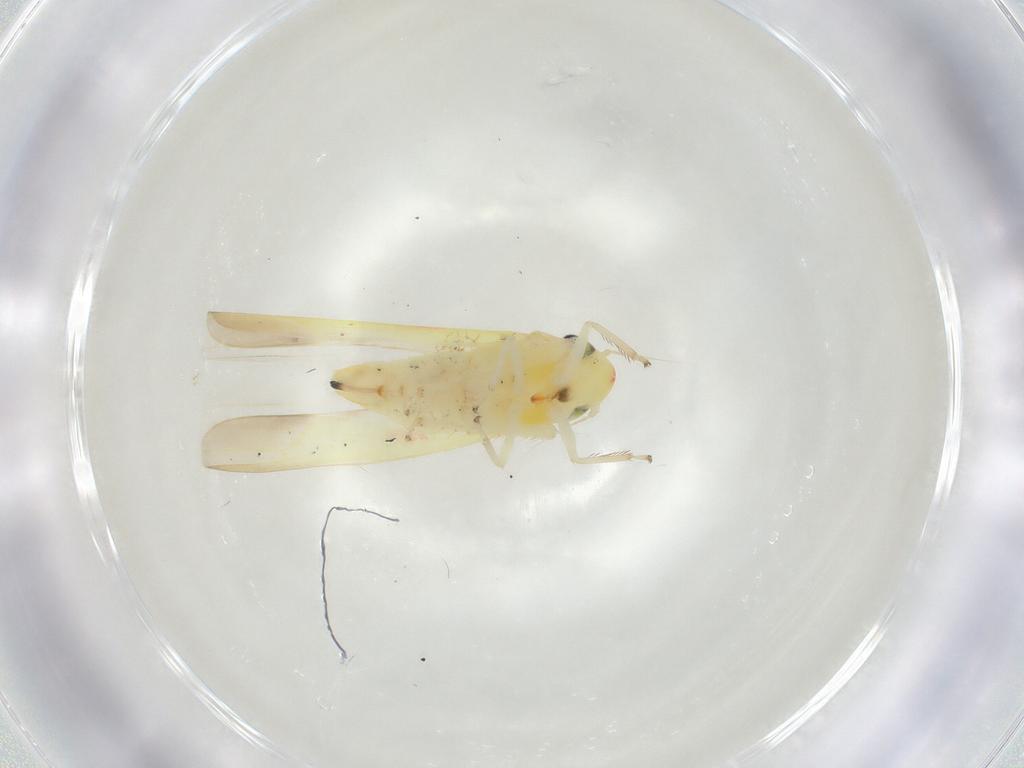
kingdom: Animalia
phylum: Arthropoda
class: Insecta
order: Hemiptera
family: Cicadellidae
